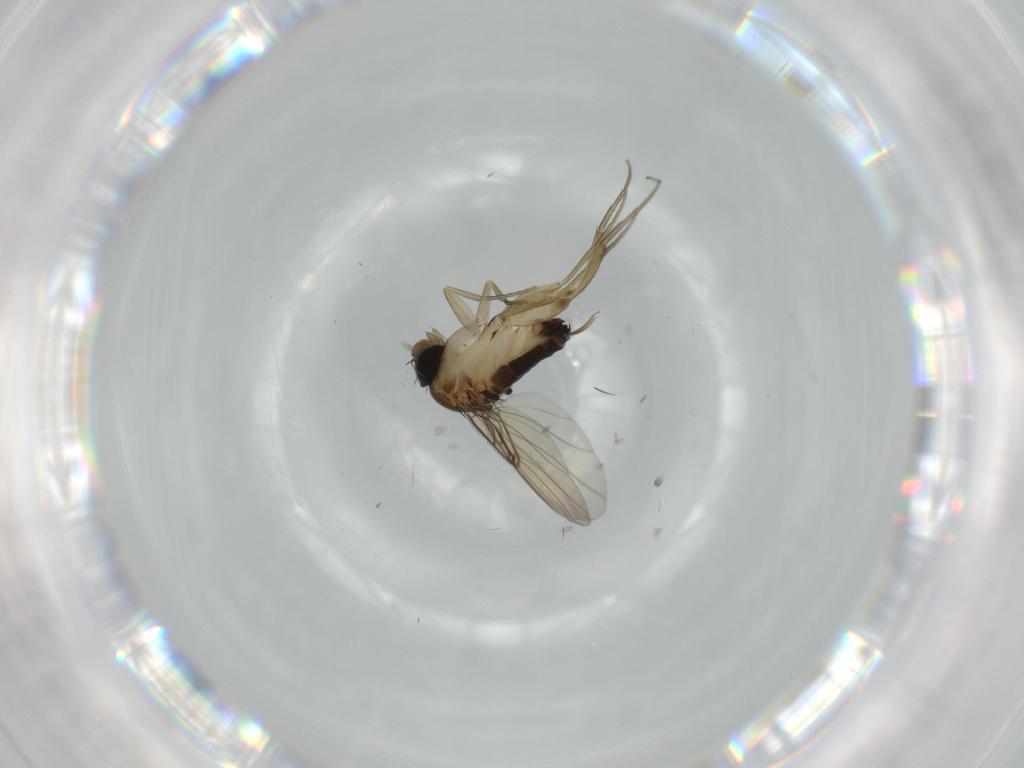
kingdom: Animalia
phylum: Arthropoda
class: Insecta
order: Diptera
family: Phoridae
